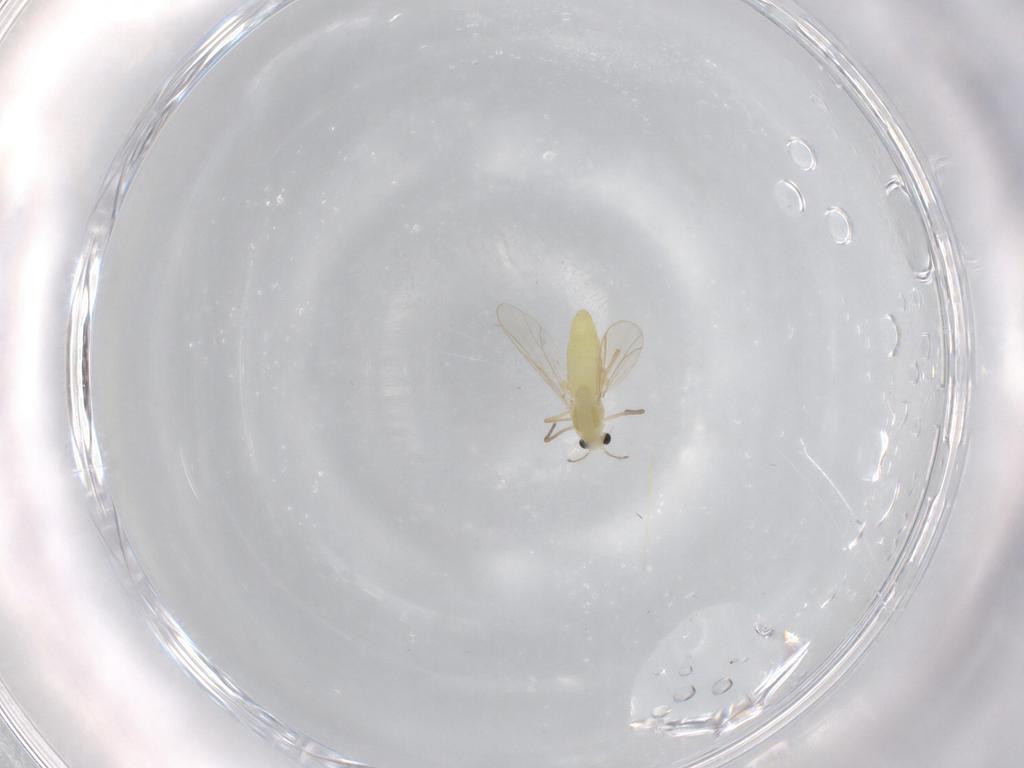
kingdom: Animalia
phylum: Arthropoda
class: Insecta
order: Diptera
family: Chironomidae
